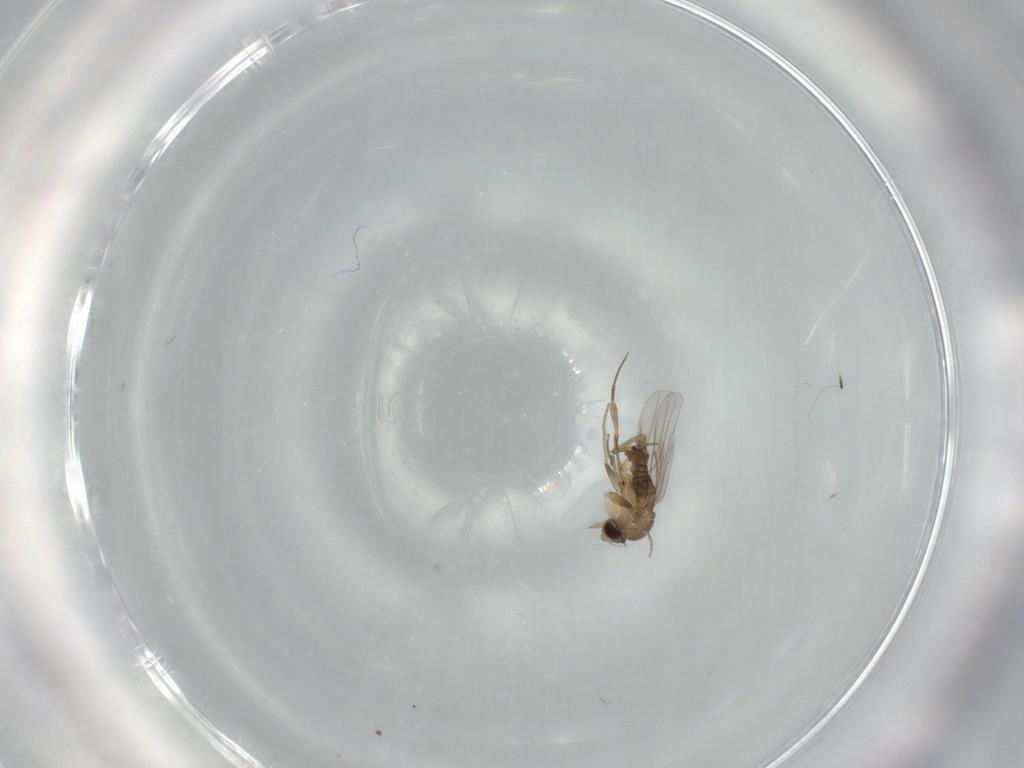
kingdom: Animalia
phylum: Arthropoda
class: Insecta
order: Diptera
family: Phoridae
